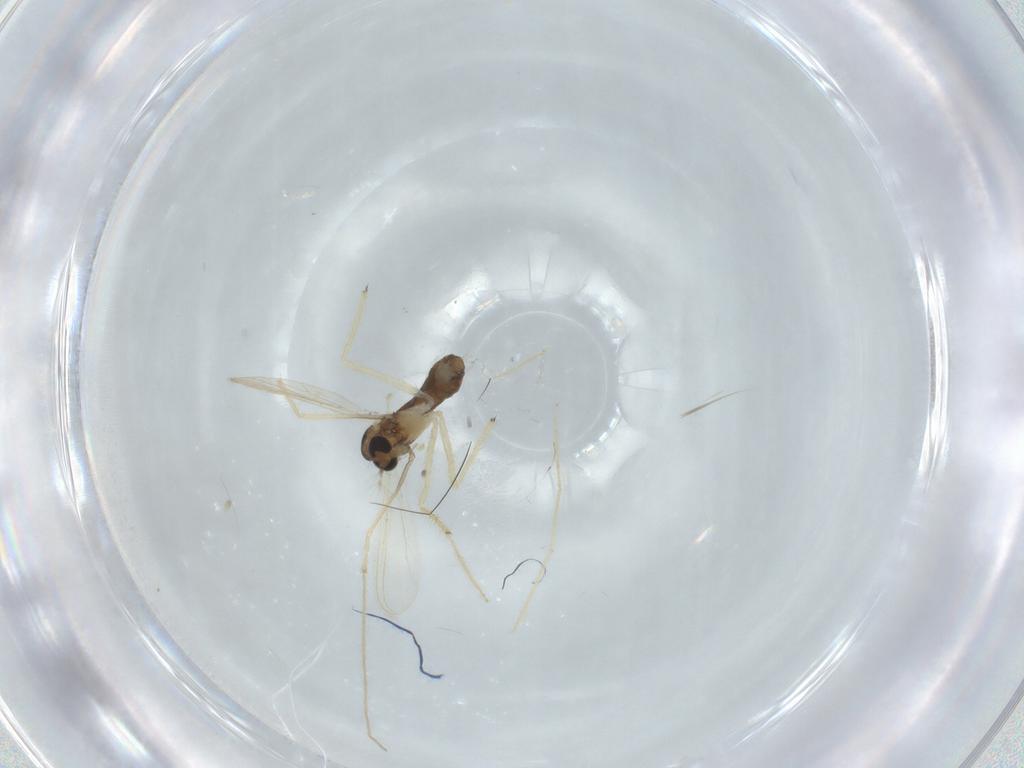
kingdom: Animalia
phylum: Arthropoda
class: Insecta
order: Diptera
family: Chironomidae
